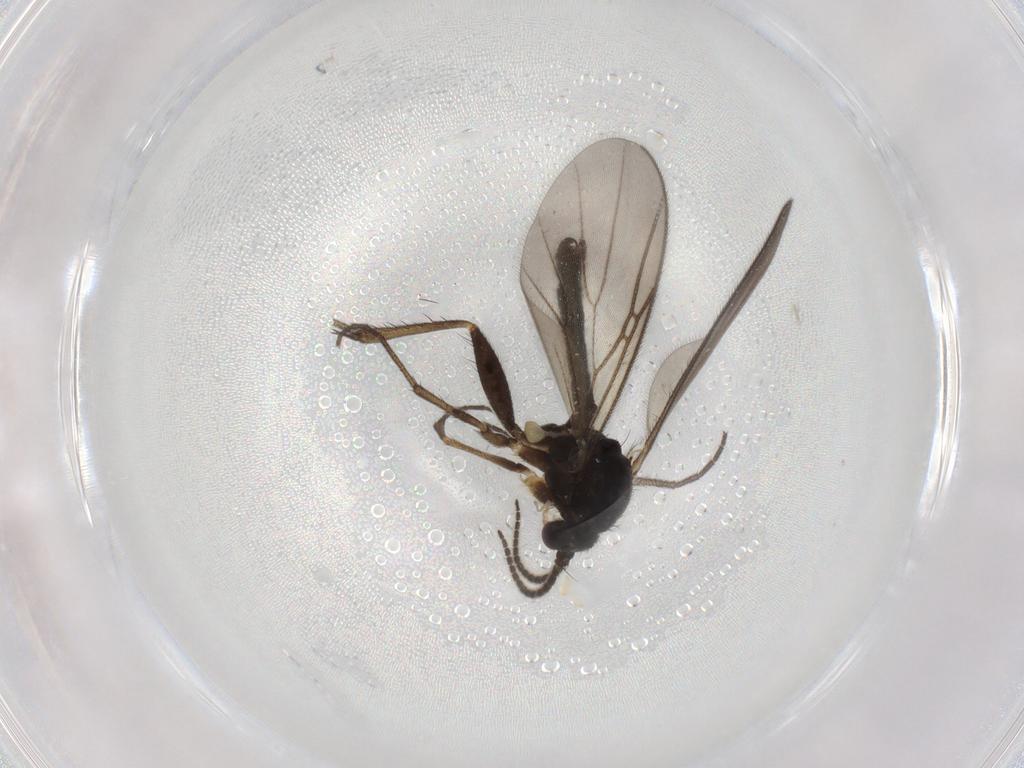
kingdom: Animalia
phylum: Arthropoda
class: Insecta
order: Diptera
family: Mycetophilidae
